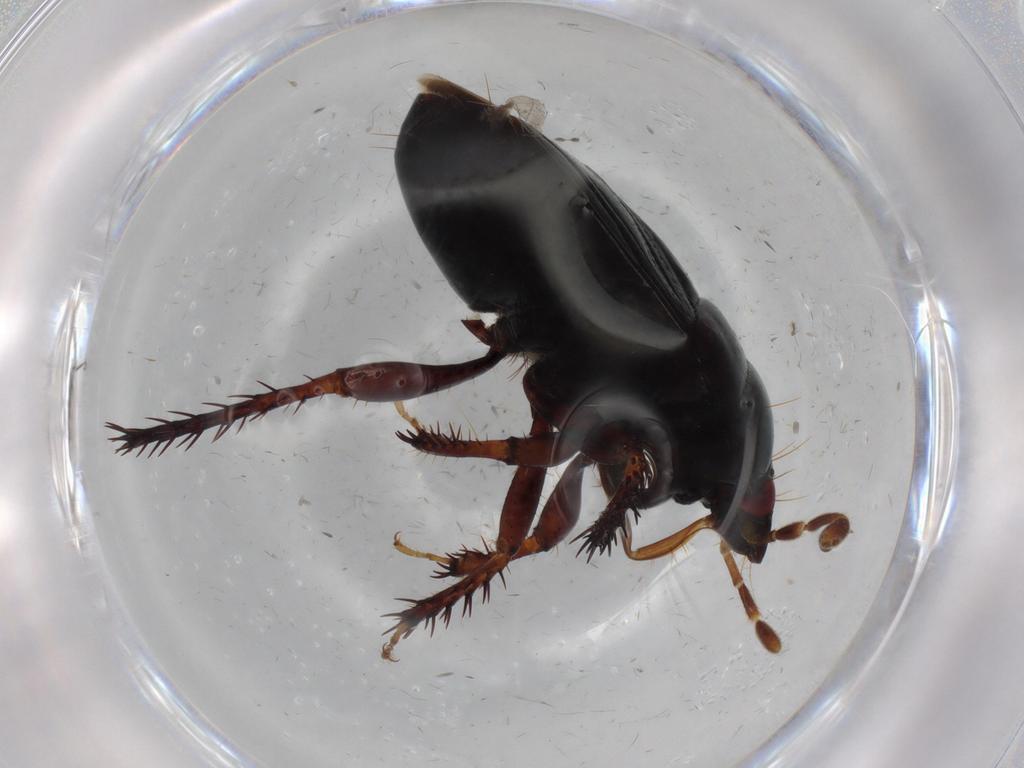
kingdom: Animalia
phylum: Arthropoda
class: Insecta
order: Hemiptera
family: Cydnidae
